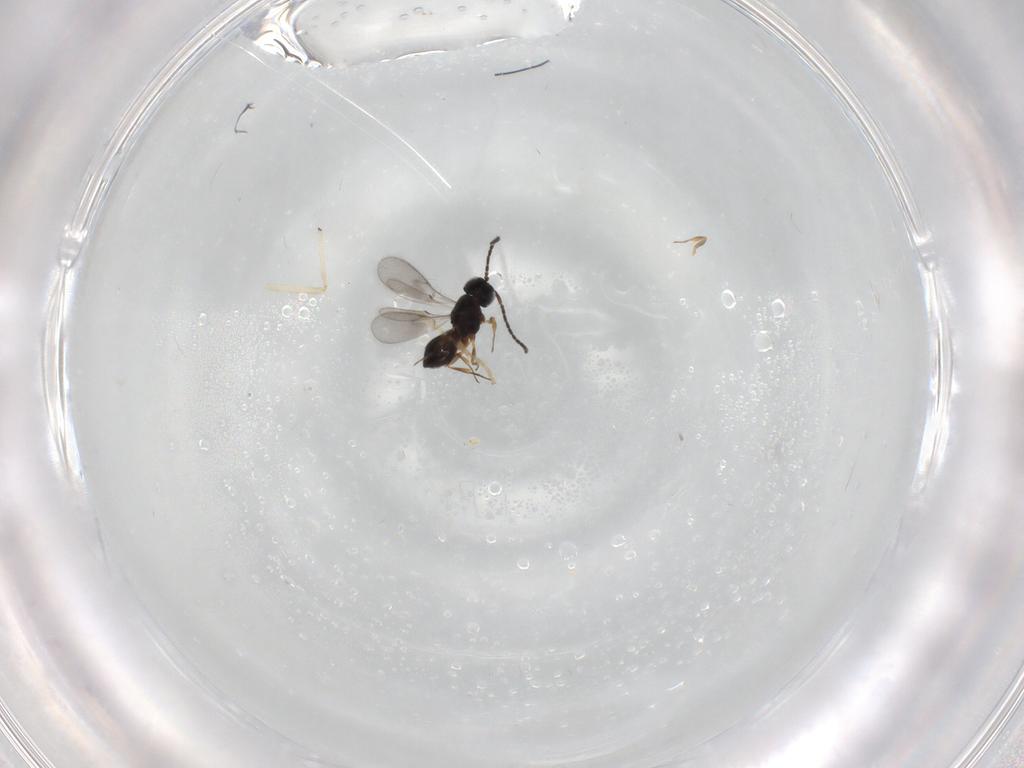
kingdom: Animalia
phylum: Arthropoda
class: Insecta
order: Hymenoptera
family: Scelionidae
